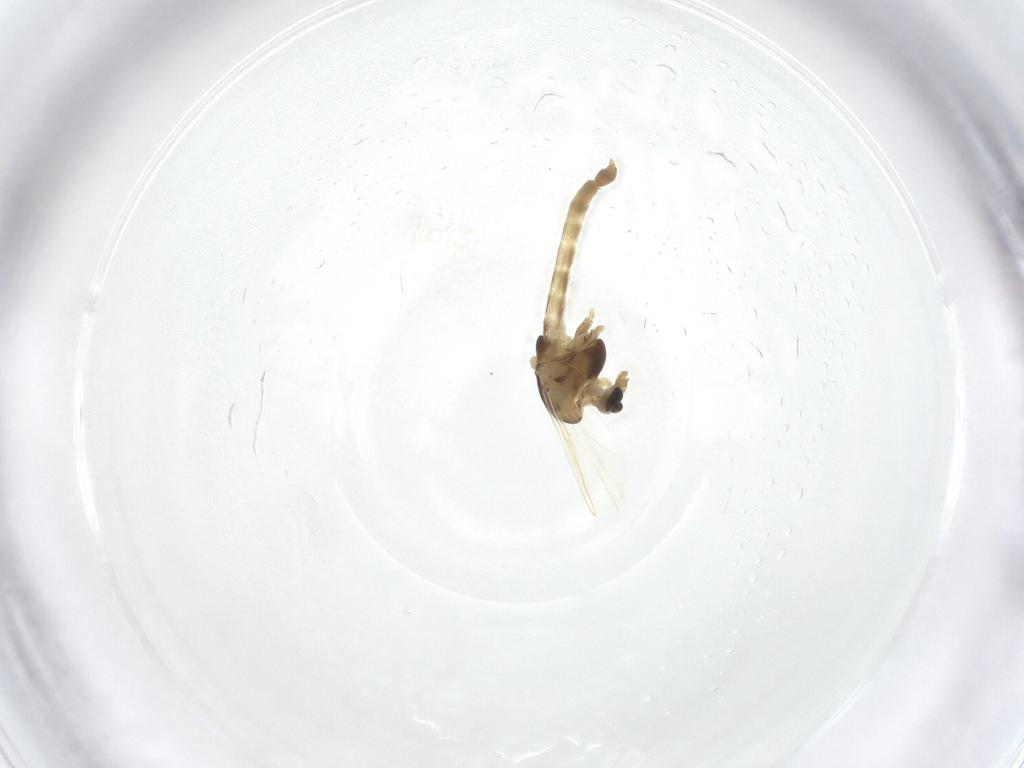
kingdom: Animalia
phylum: Arthropoda
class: Insecta
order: Diptera
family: Chironomidae
